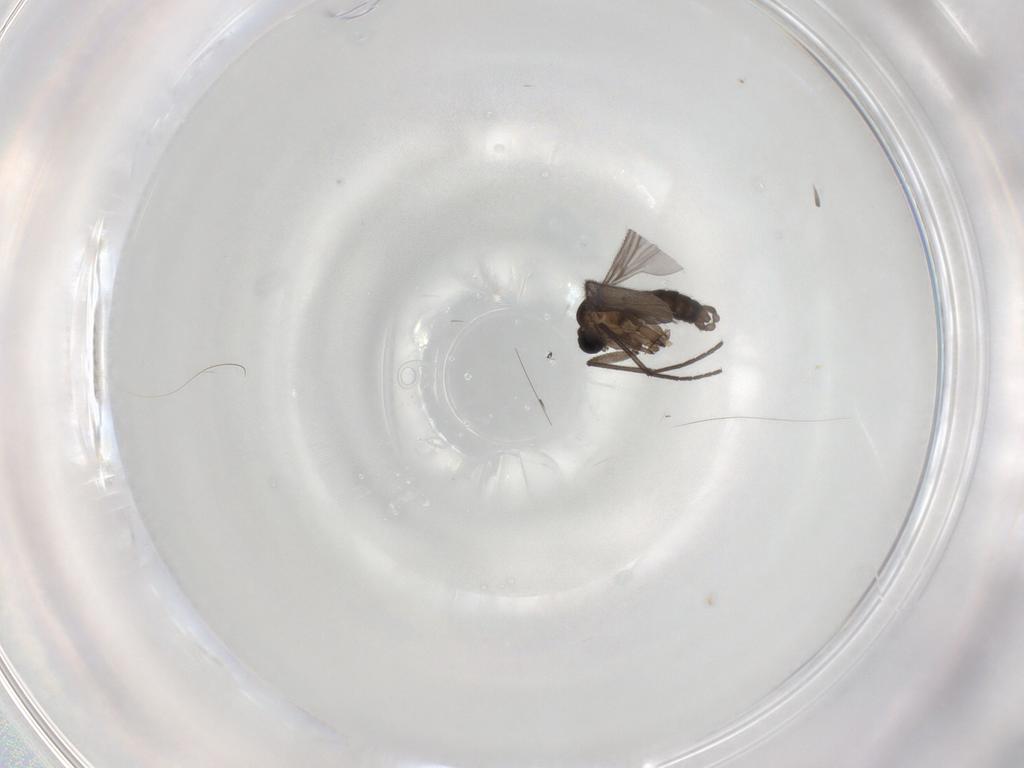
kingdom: Animalia
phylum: Arthropoda
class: Insecta
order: Diptera
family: Sciaridae
